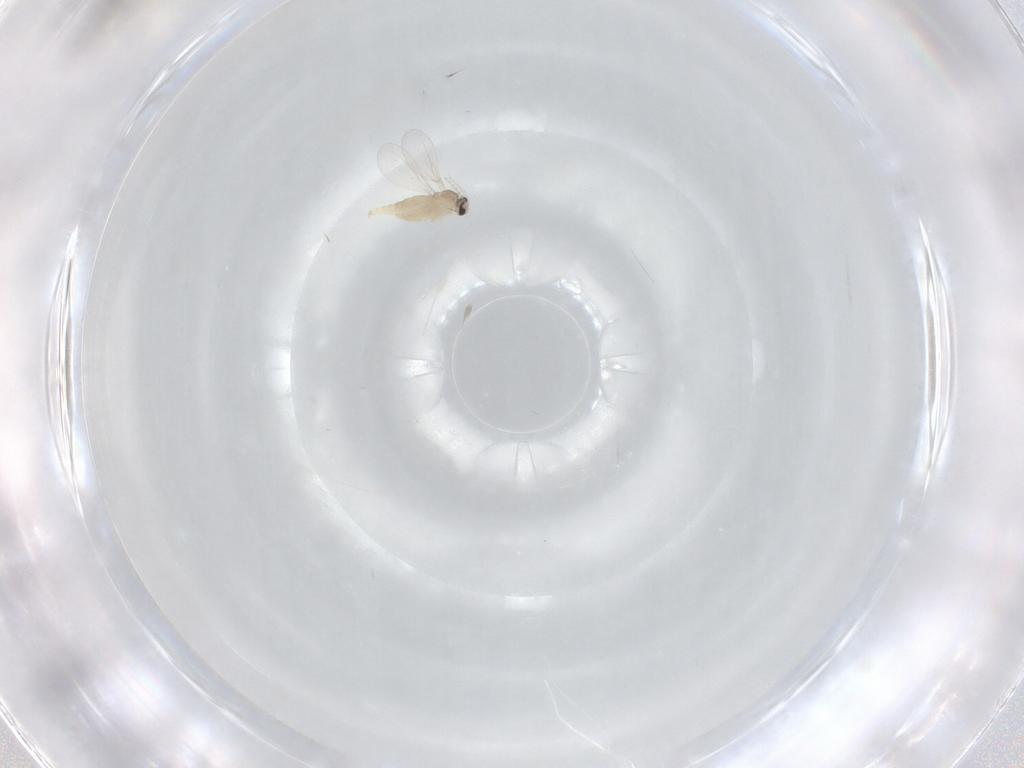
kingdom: Animalia
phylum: Arthropoda
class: Insecta
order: Diptera
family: Cecidomyiidae
